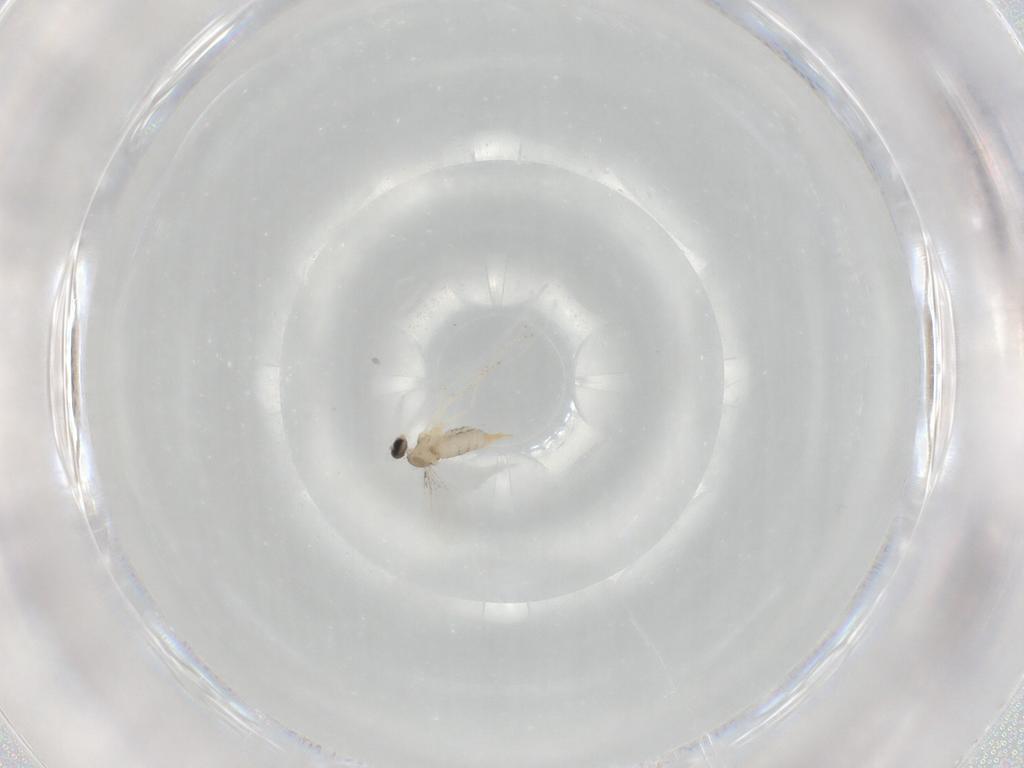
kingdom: Animalia
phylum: Arthropoda
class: Insecta
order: Diptera
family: Cecidomyiidae
